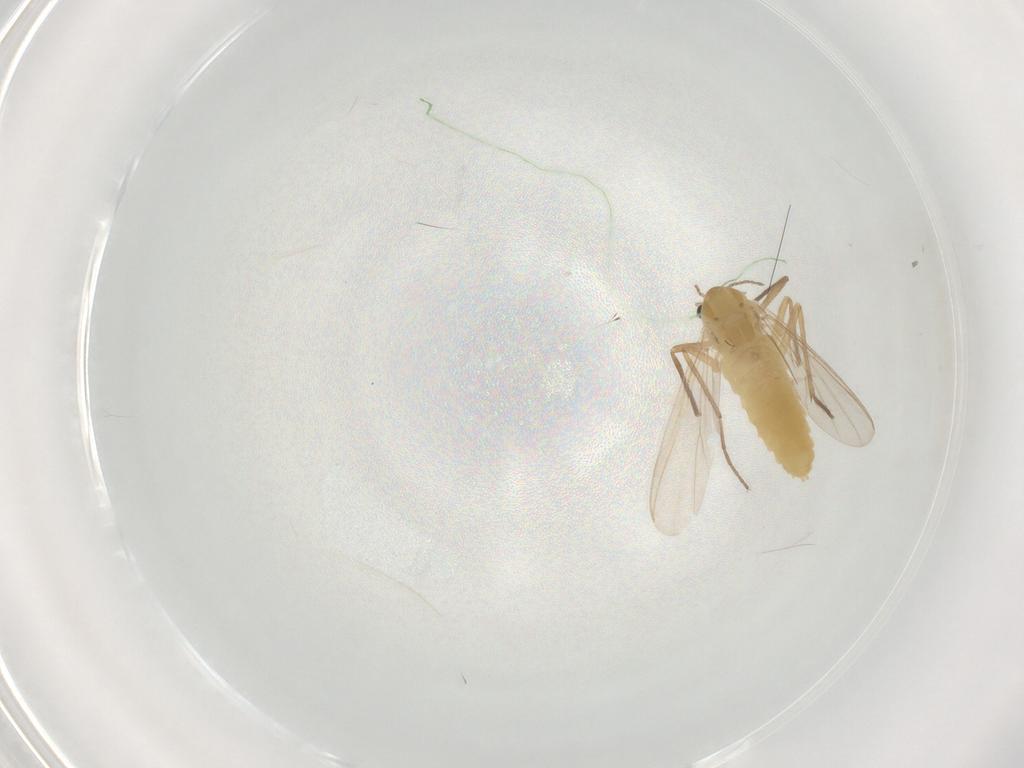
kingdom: Animalia
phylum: Arthropoda
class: Insecta
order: Diptera
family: Chironomidae
